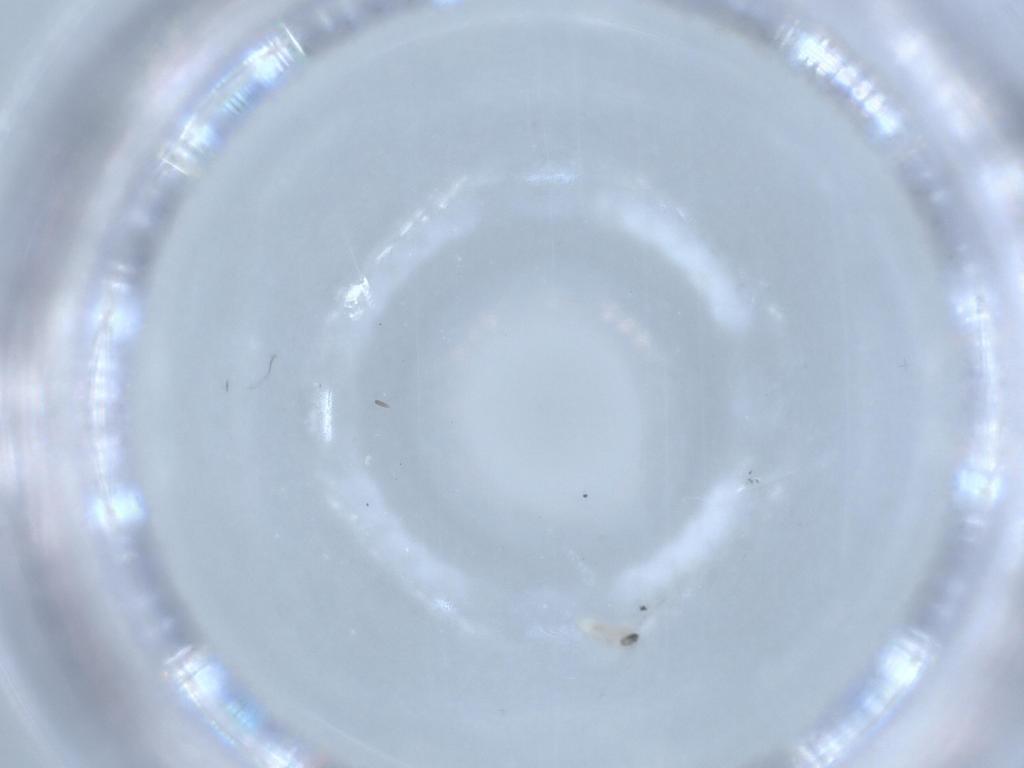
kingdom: Animalia
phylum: Arthropoda
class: Insecta
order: Diptera
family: Cecidomyiidae
